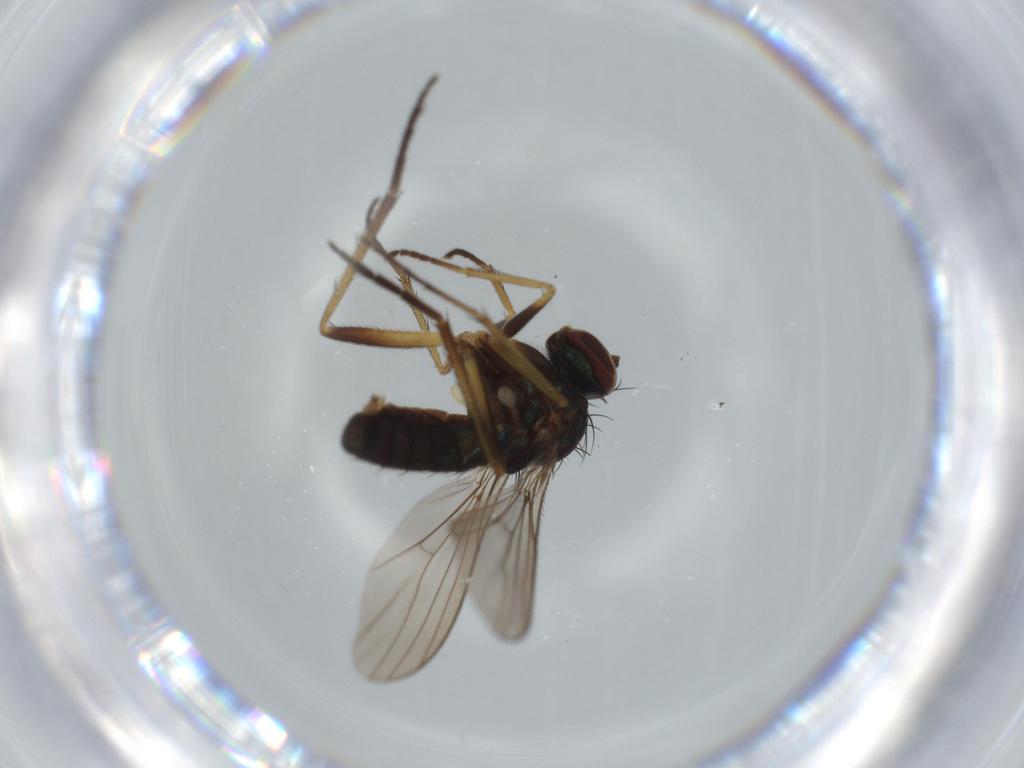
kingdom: Animalia
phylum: Arthropoda
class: Insecta
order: Diptera
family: Dolichopodidae
